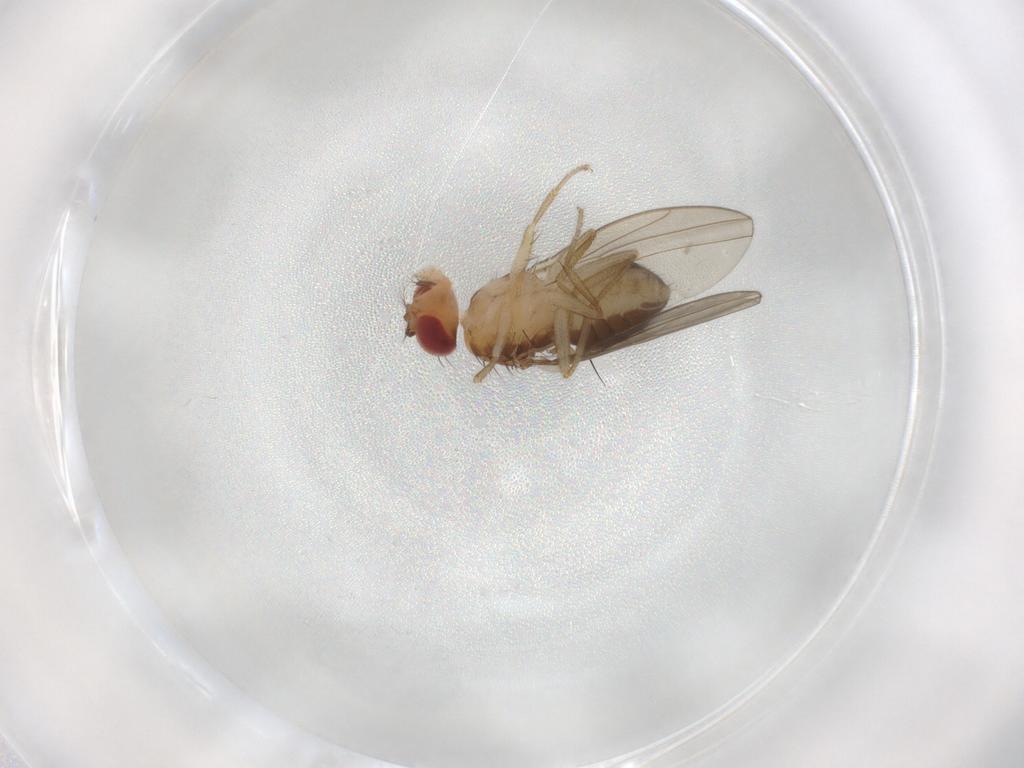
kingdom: Animalia
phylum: Arthropoda
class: Insecta
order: Diptera
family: Drosophilidae
